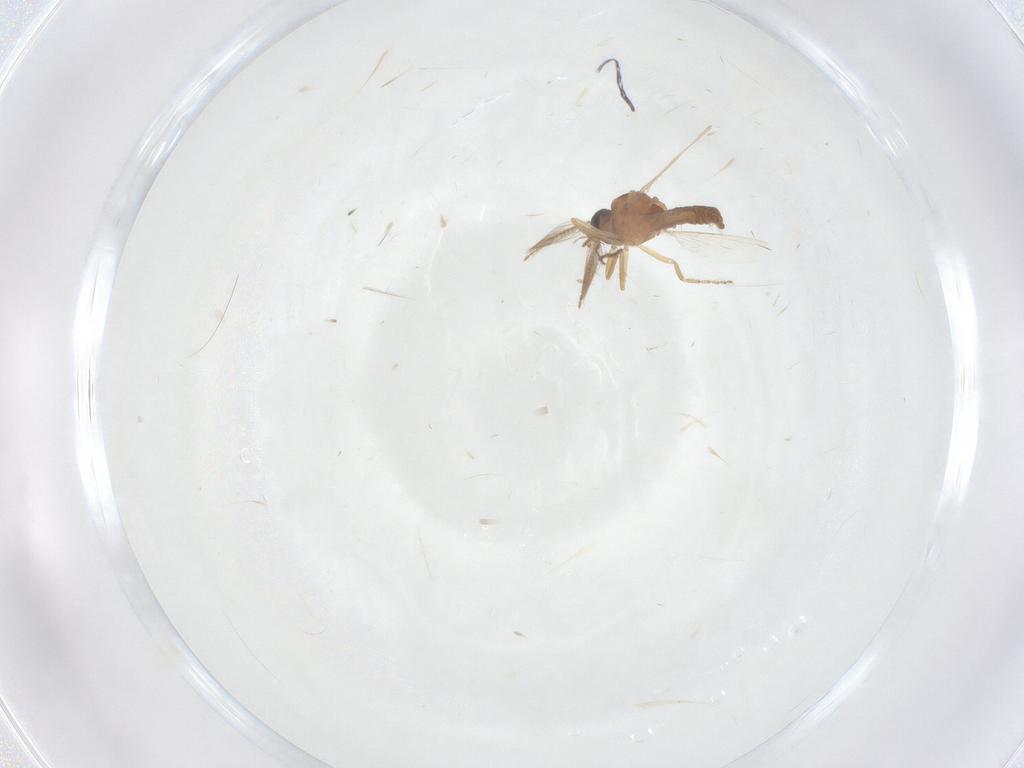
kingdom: Animalia
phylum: Arthropoda
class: Insecta
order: Diptera
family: Ceratopogonidae
